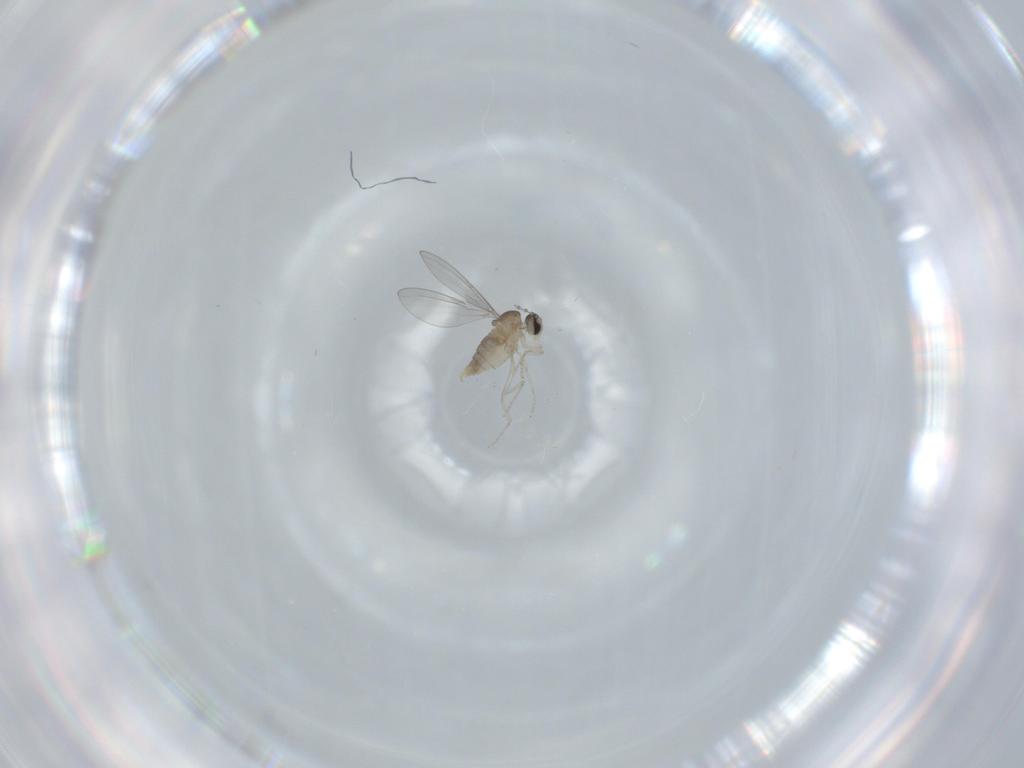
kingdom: Animalia
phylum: Arthropoda
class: Insecta
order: Diptera
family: Cecidomyiidae
